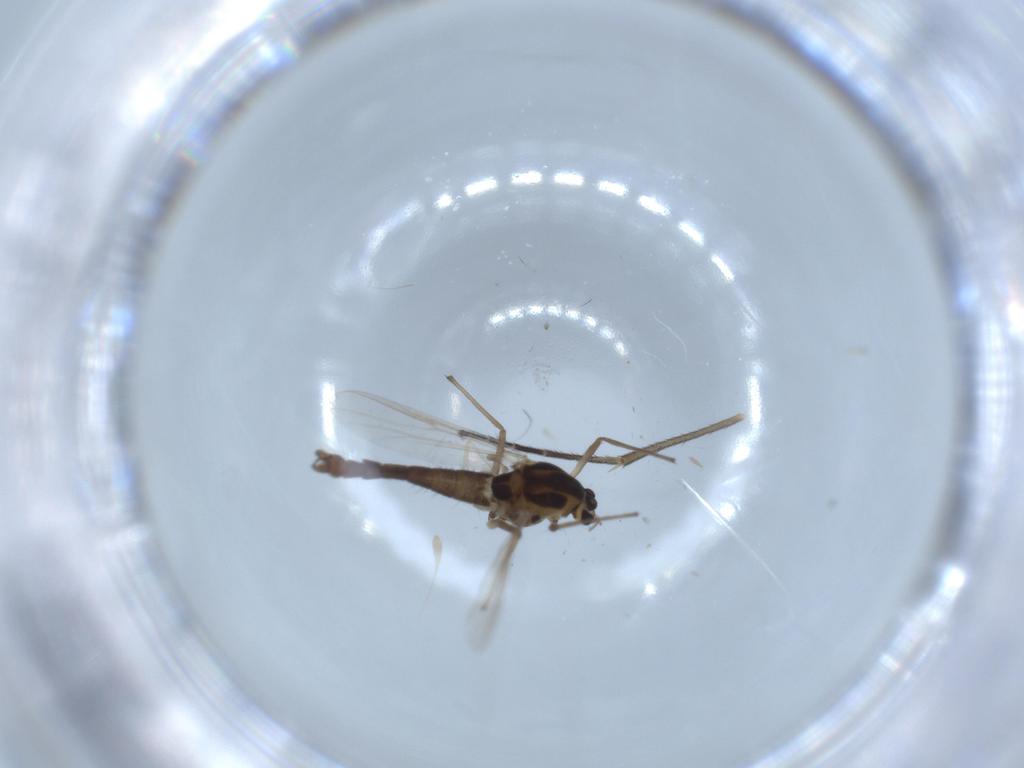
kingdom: Animalia
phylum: Arthropoda
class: Insecta
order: Diptera
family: Chironomidae
